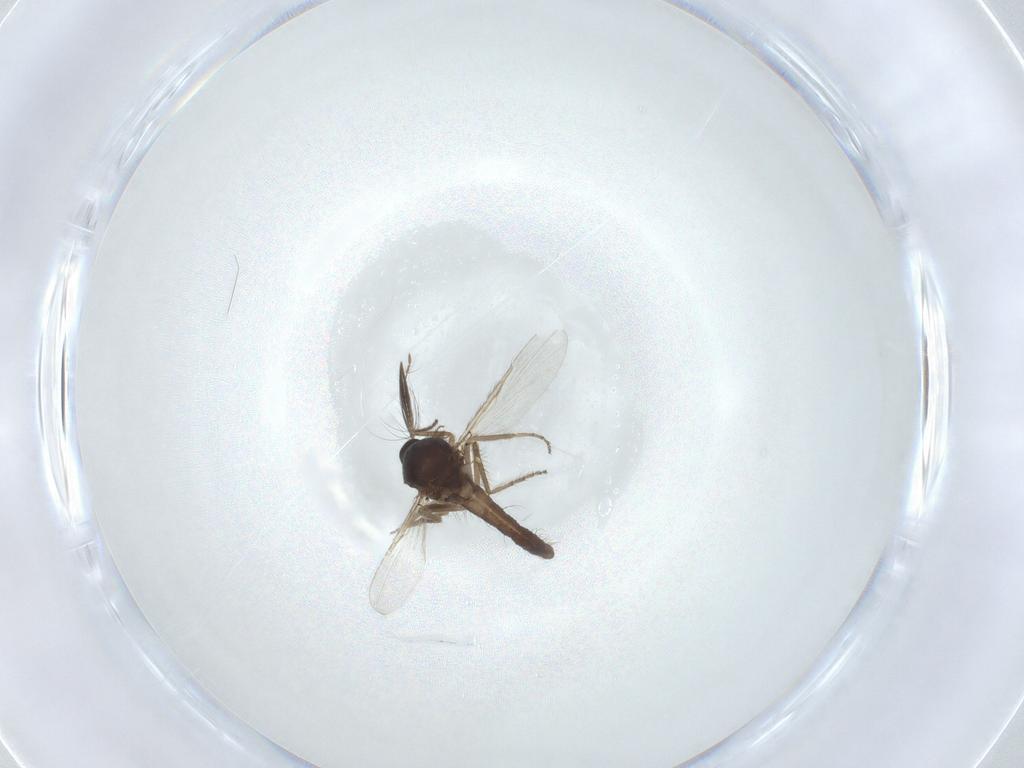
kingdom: Animalia
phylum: Arthropoda
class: Insecta
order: Diptera
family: Ceratopogonidae
